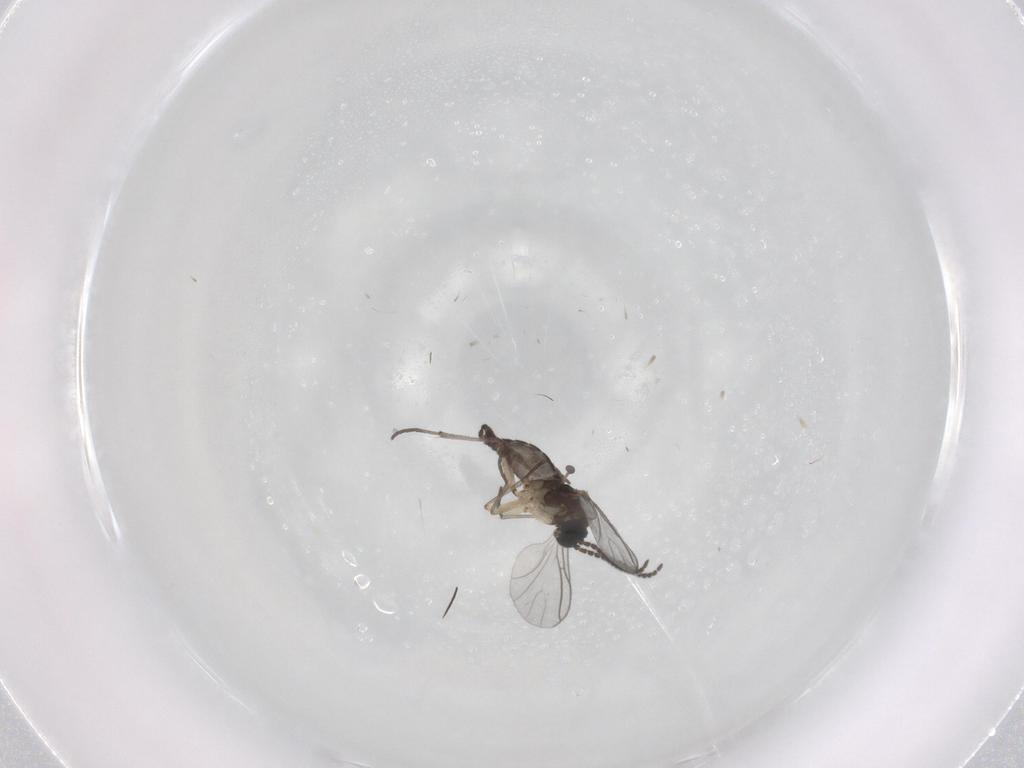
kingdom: Animalia
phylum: Arthropoda
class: Insecta
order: Diptera
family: Sciaridae
